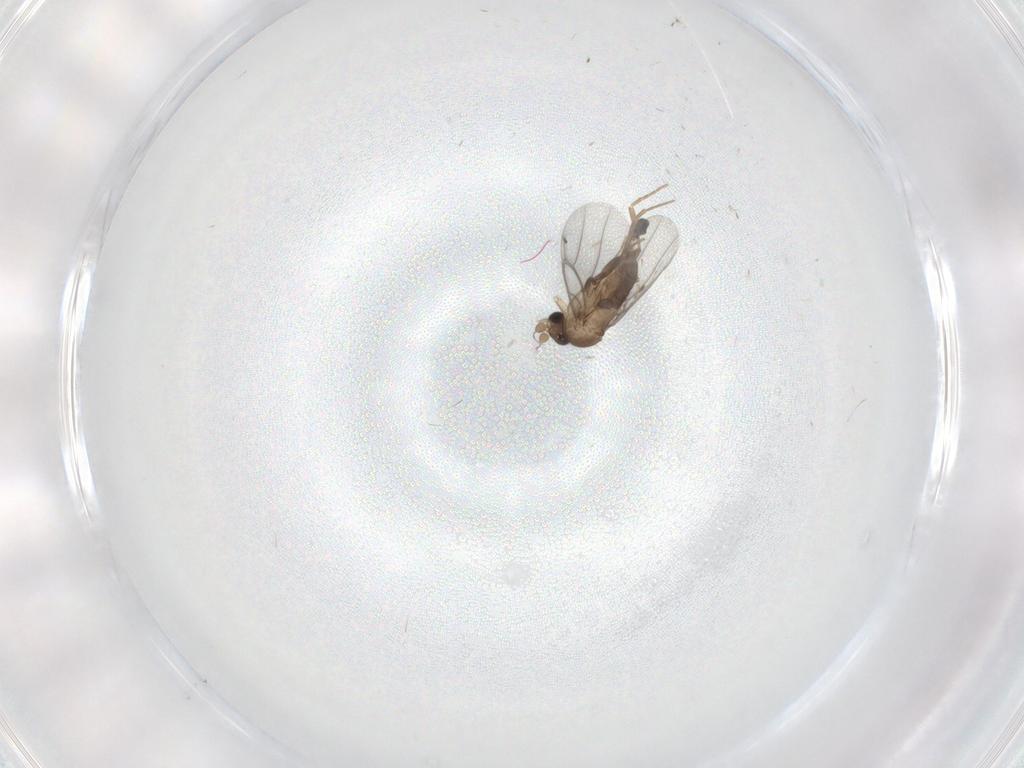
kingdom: Animalia
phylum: Arthropoda
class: Insecta
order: Diptera
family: Sciaridae
